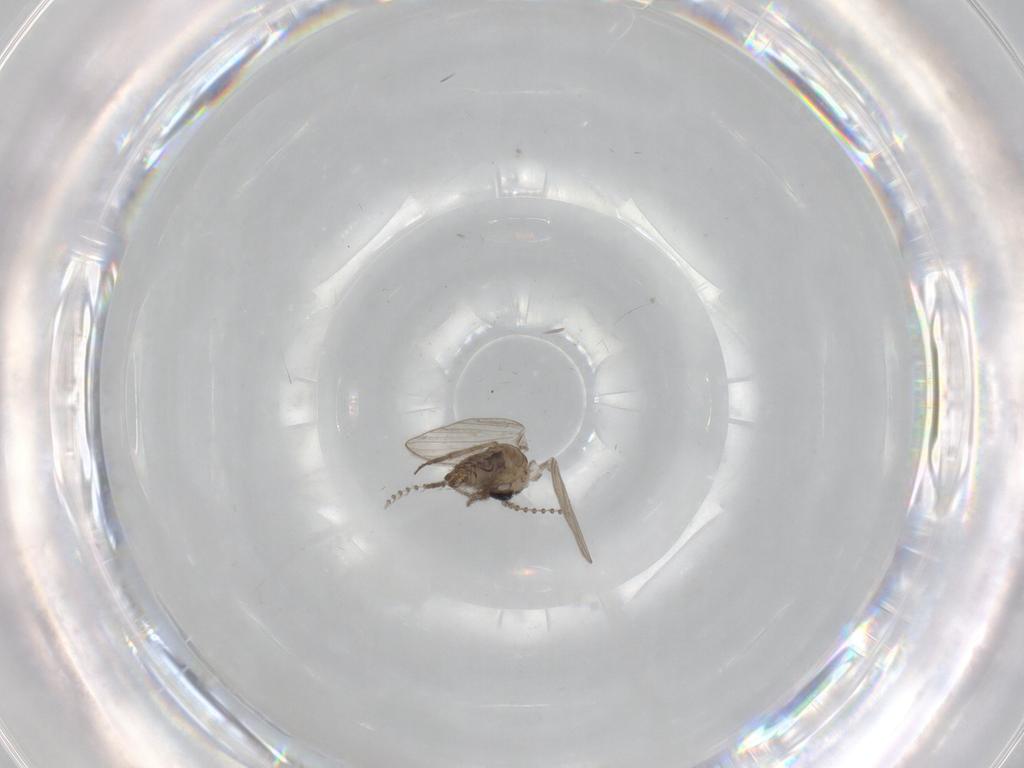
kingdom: Animalia
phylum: Arthropoda
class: Insecta
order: Diptera
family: Psychodidae
